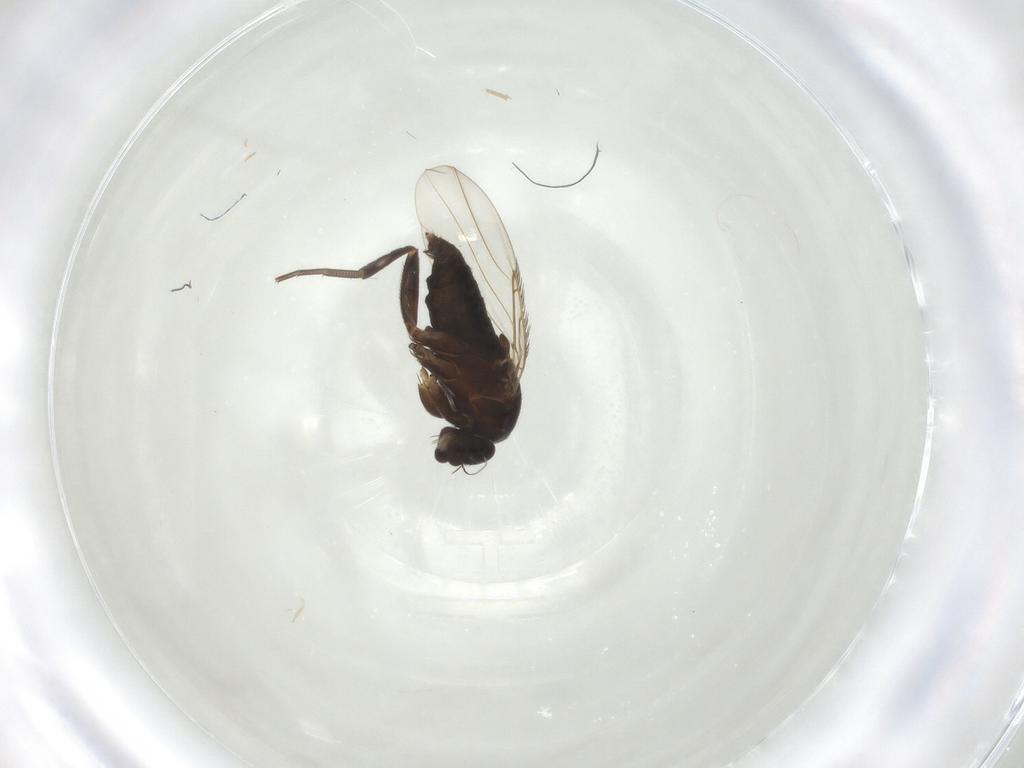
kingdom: Animalia
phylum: Arthropoda
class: Insecta
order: Diptera
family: Phoridae
